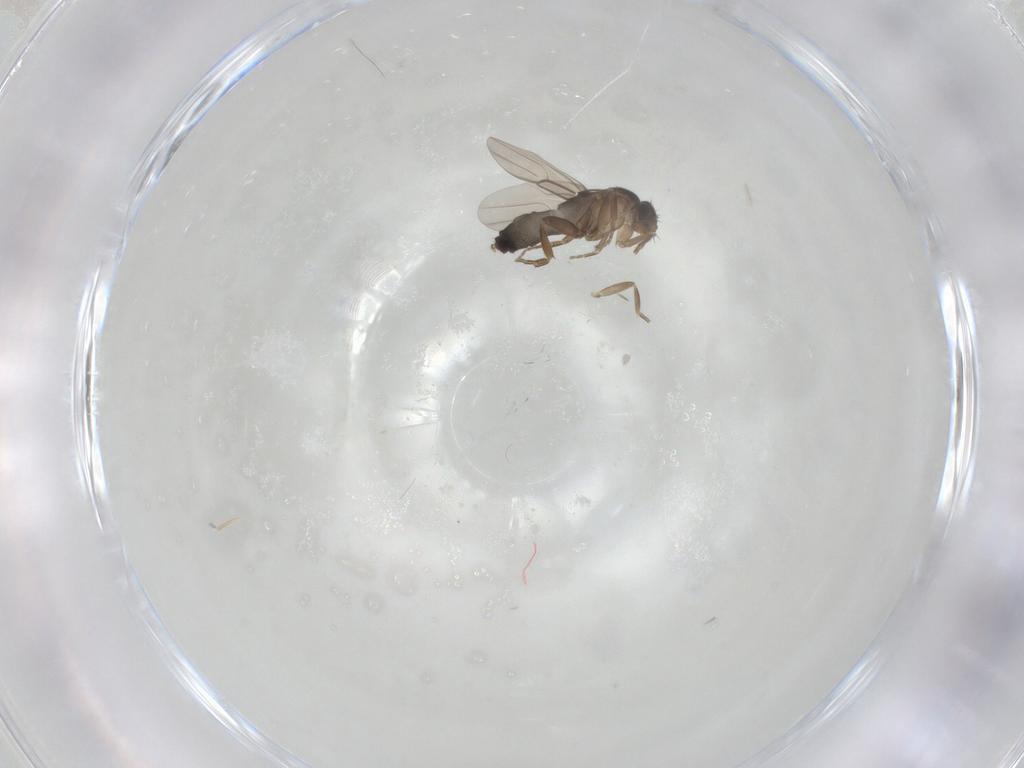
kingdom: Animalia
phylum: Arthropoda
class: Insecta
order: Diptera
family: Phoridae
